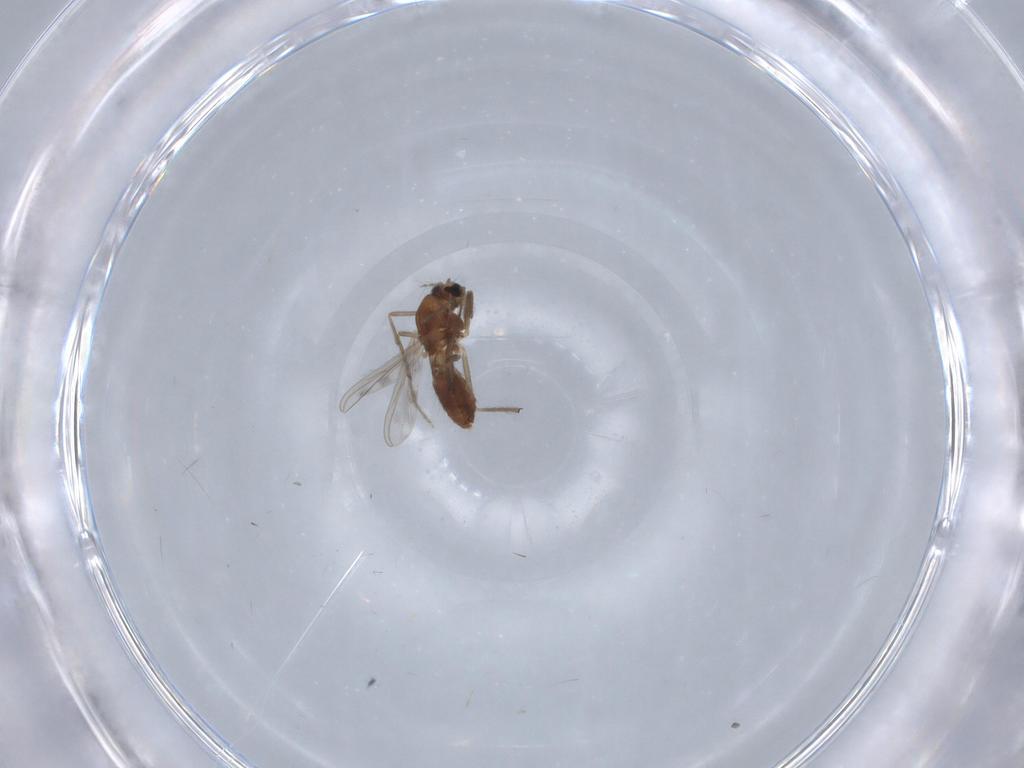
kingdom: Animalia
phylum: Arthropoda
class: Insecta
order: Diptera
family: Chironomidae
